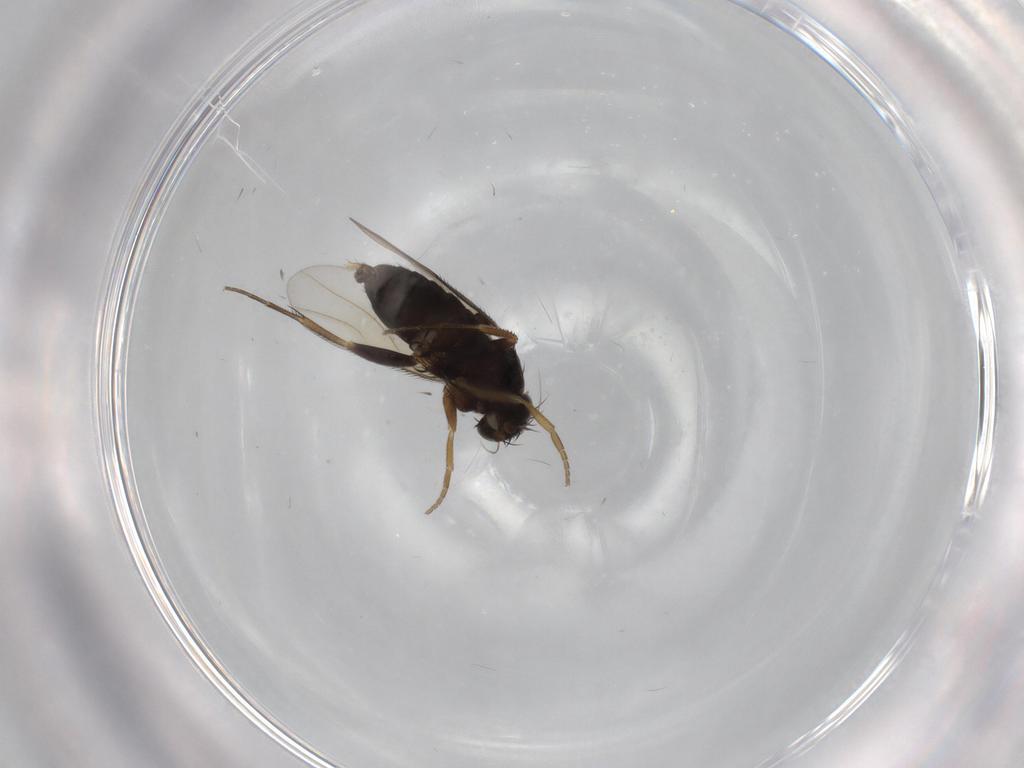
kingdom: Animalia
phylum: Arthropoda
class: Insecta
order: Diptera
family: Phoridae
